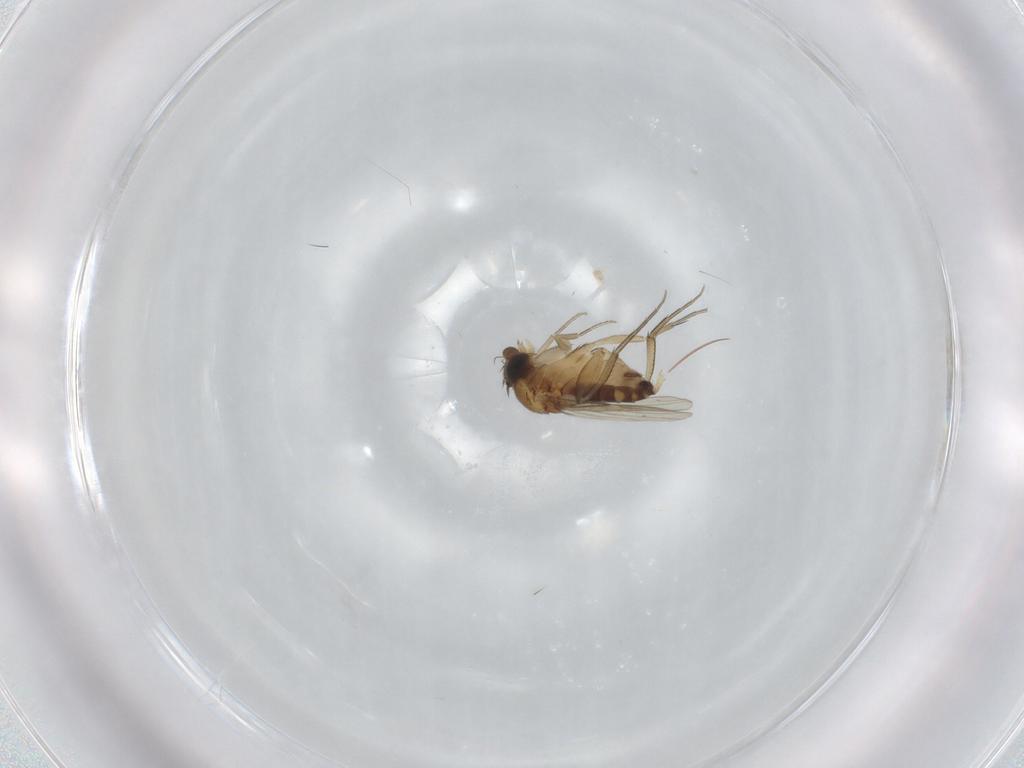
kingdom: Animalia
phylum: Arthropoda
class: Insecta
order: Diptera
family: Phoridae
